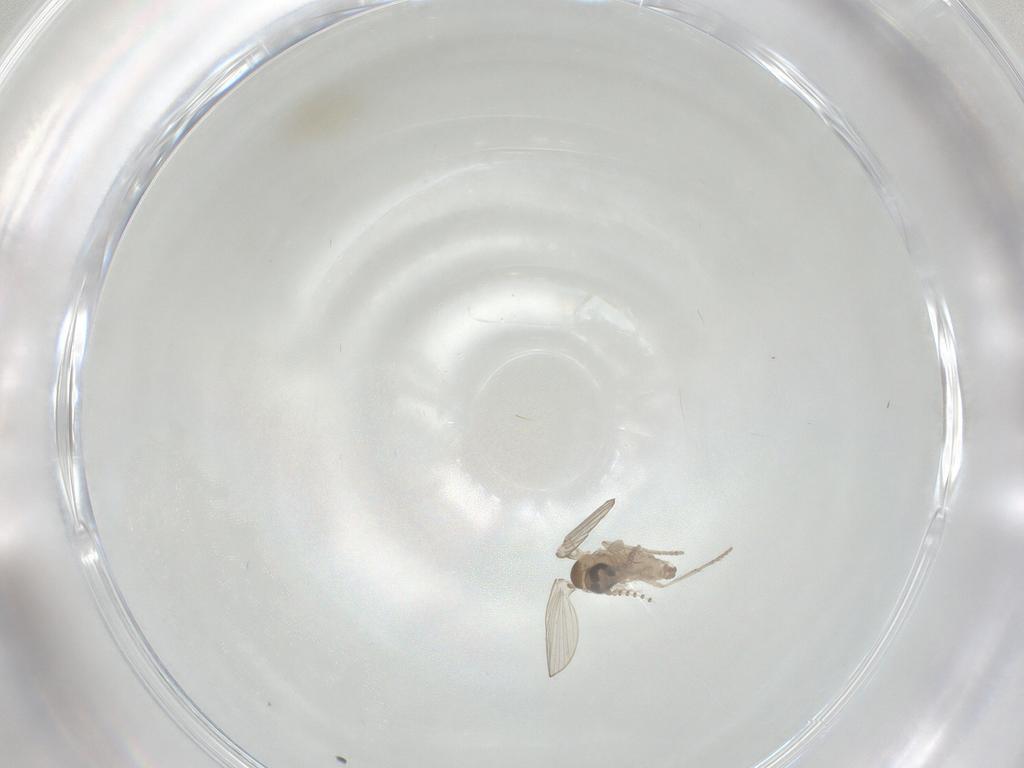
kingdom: Animalia
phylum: Arthropoda
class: Insecta
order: Diptera
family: Psychodidae
